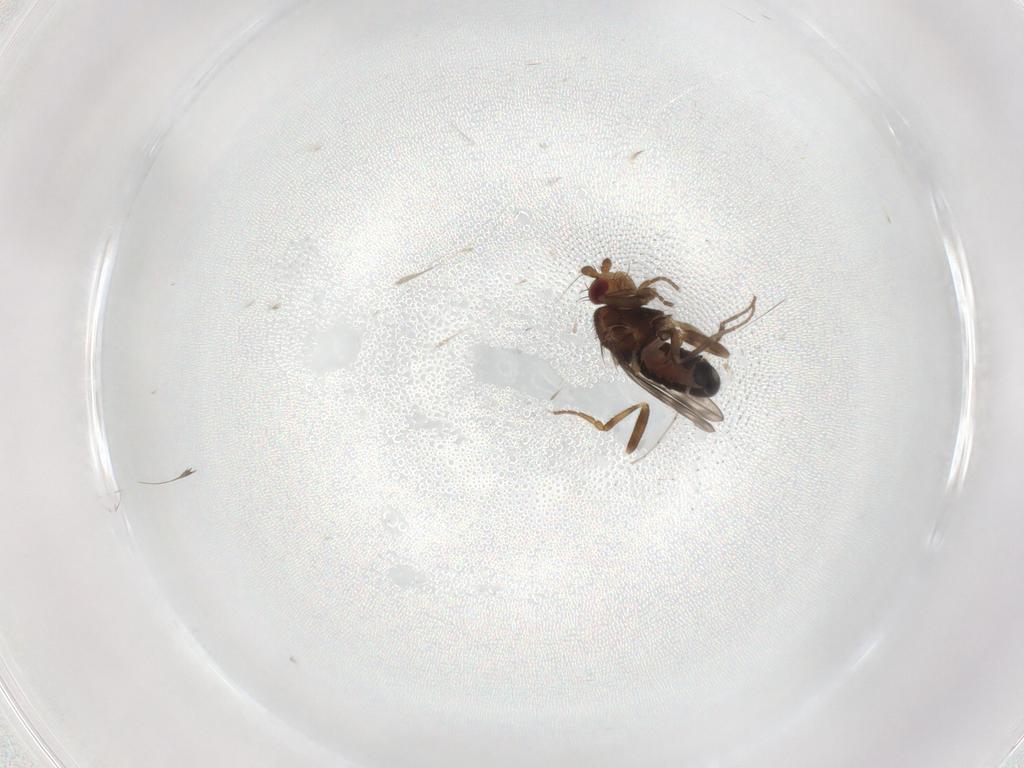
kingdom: Animalia
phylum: Arthropoda
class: Insecta
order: Diptera
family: Sphaeroceridae
